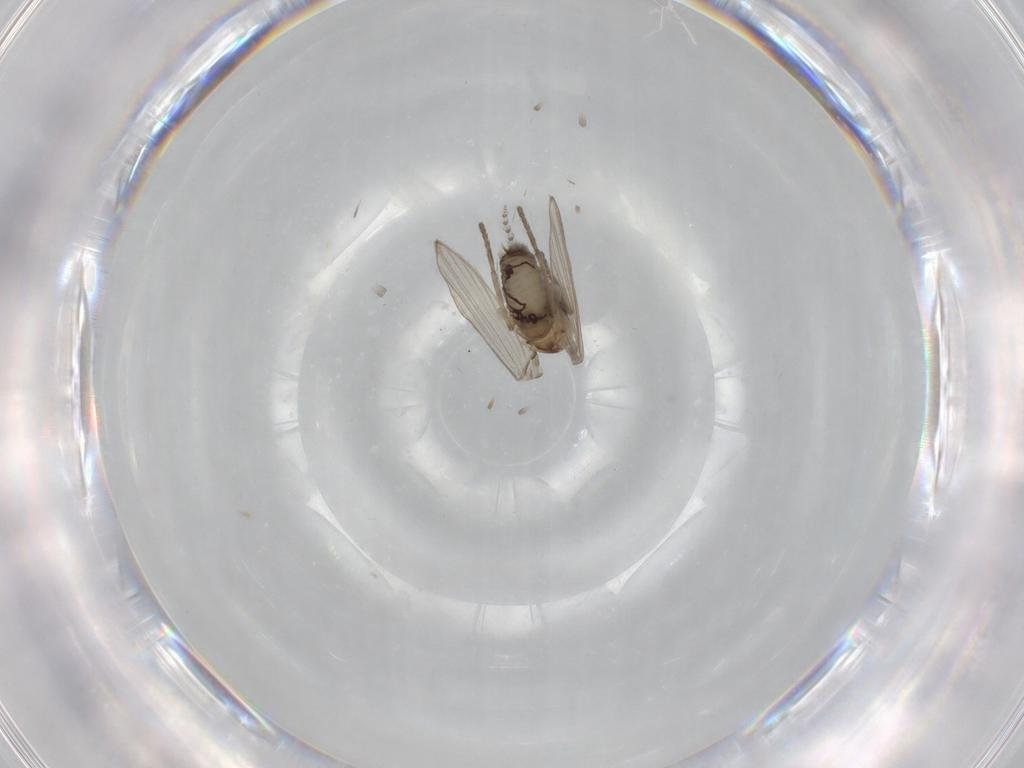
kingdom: Animalia
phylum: Arthropoda
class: Insecta
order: Diptera
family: Psychodidae
